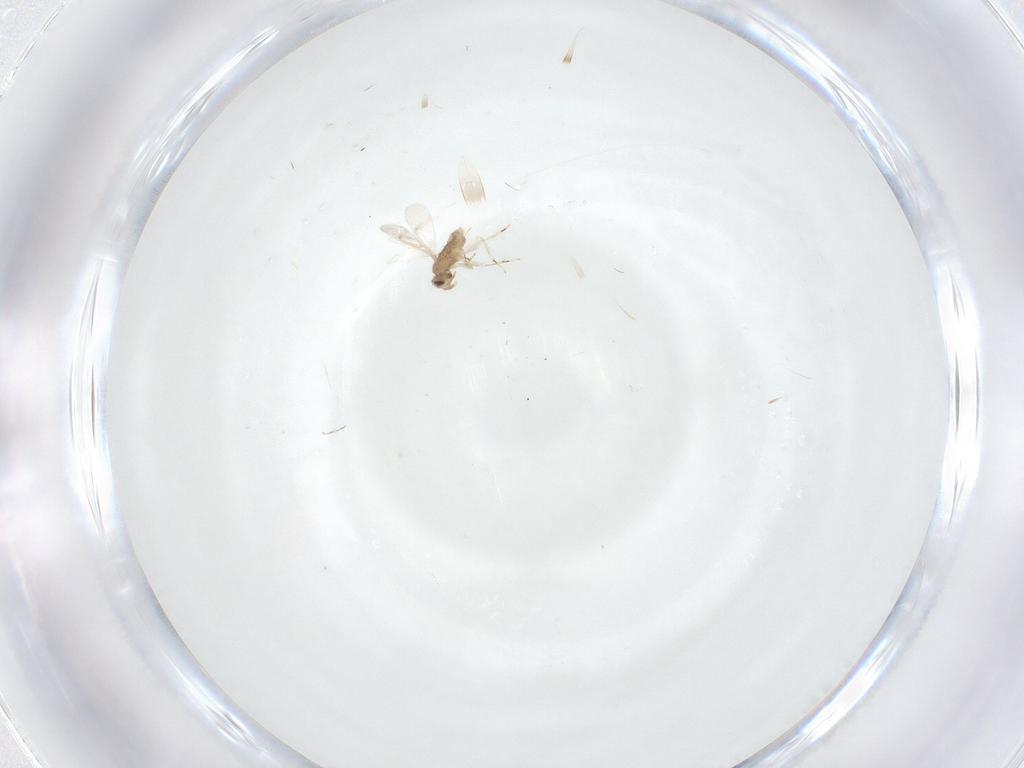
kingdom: Animalia
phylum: Arthropoda
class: Insecta
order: Hymenoptera
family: Aphelinidae
